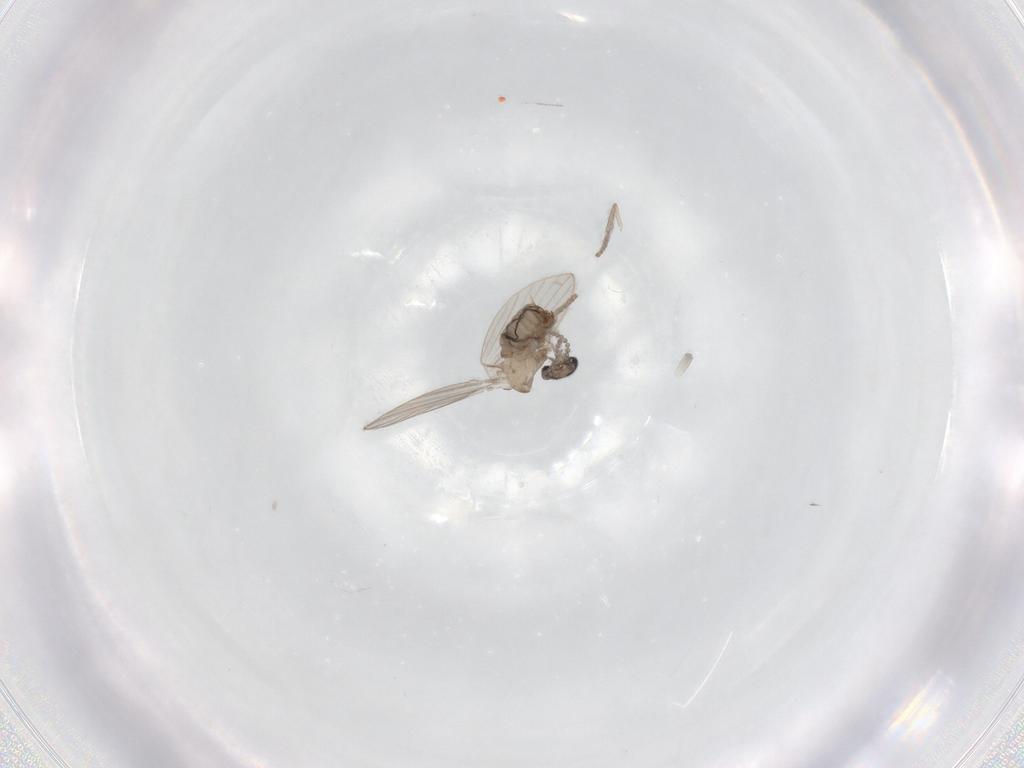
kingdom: Animalia
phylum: Arthropoda
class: Insecta
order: Diptera
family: Psychodidae
